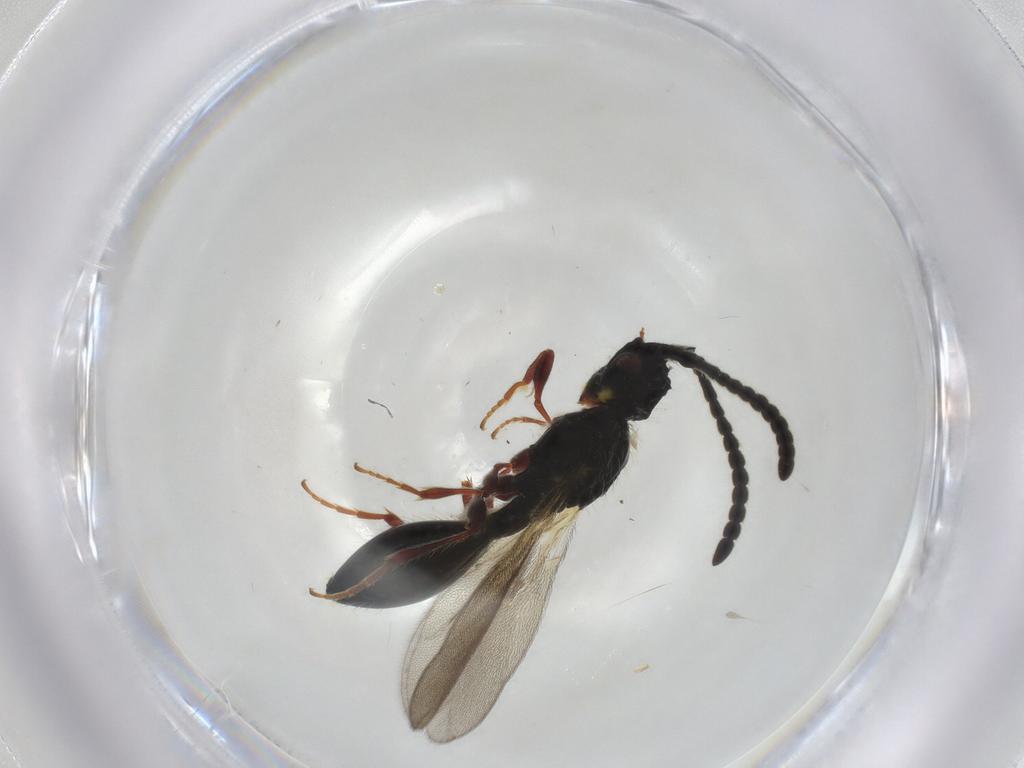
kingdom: Animalia
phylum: Arthropoda
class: Insecta
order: Hymenoptera
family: Diapriidae
